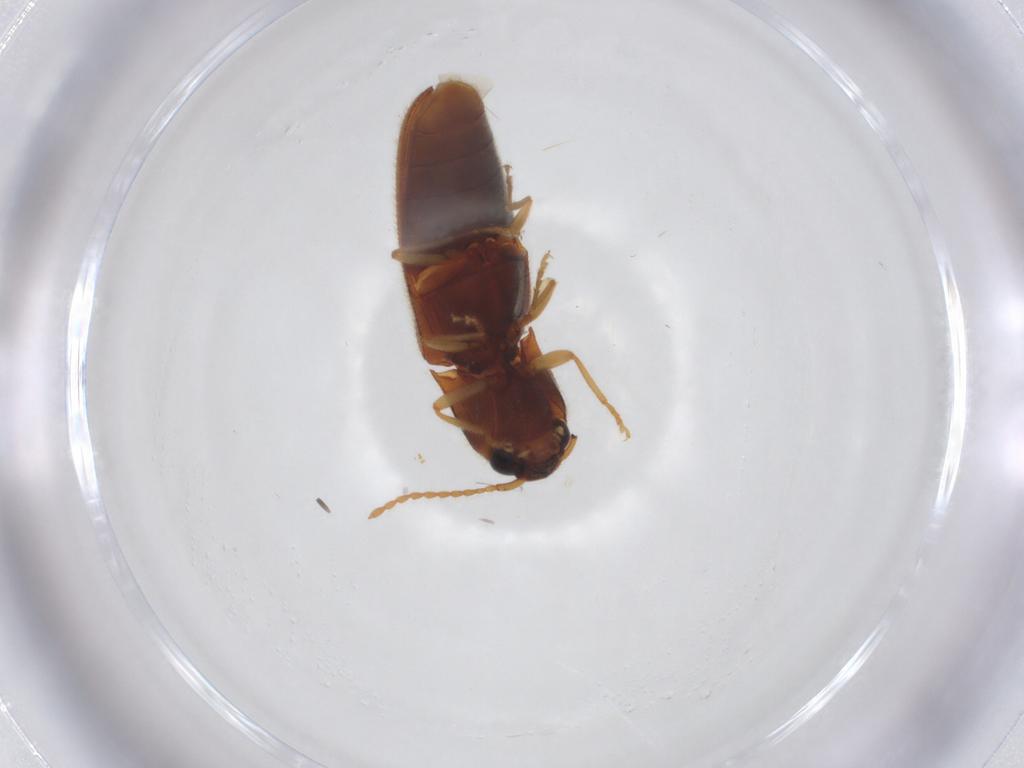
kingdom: Animalia
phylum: Arthropoda
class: Insecta
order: Coleoptera
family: Elateridae
